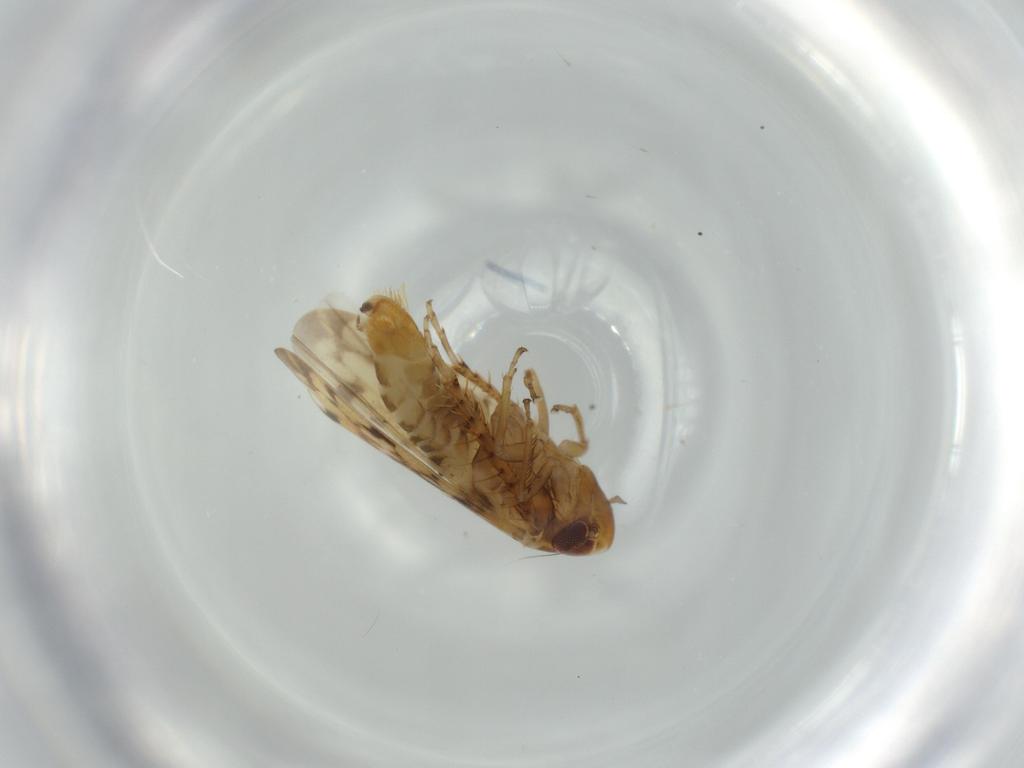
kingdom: Animalia
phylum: Arthropoda
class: Insecta
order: Hemiptera
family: Cicadellidae
